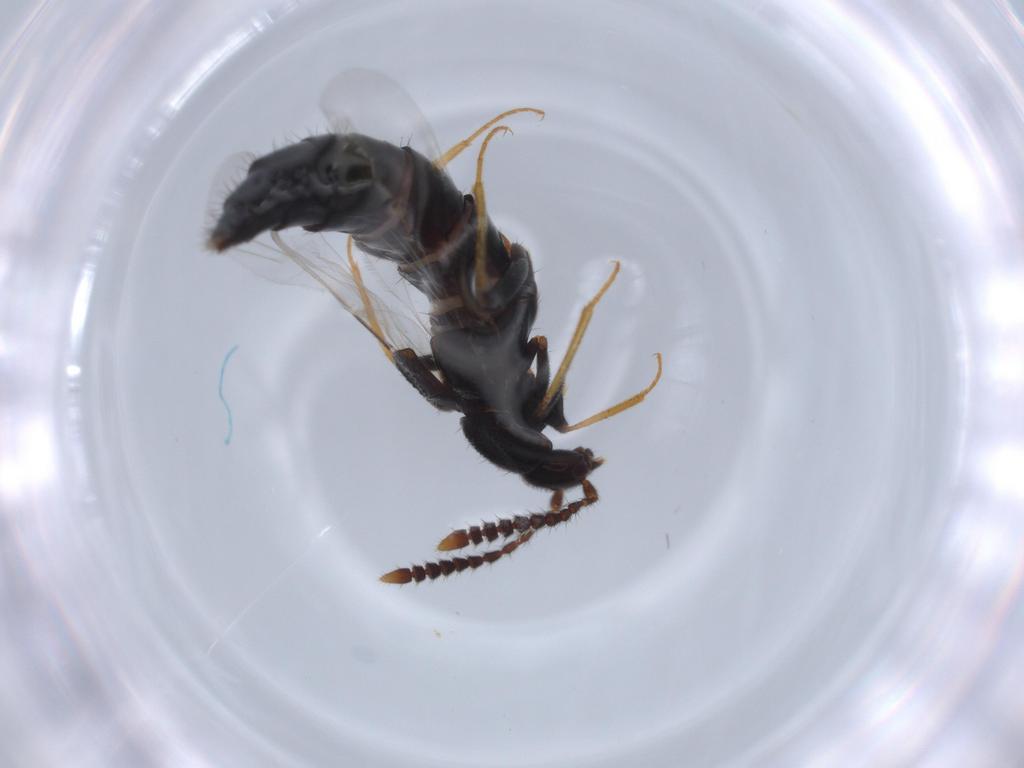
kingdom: Animalia
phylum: Arthropoda
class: Insecta
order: Coleoptera
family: Staphylinidae
